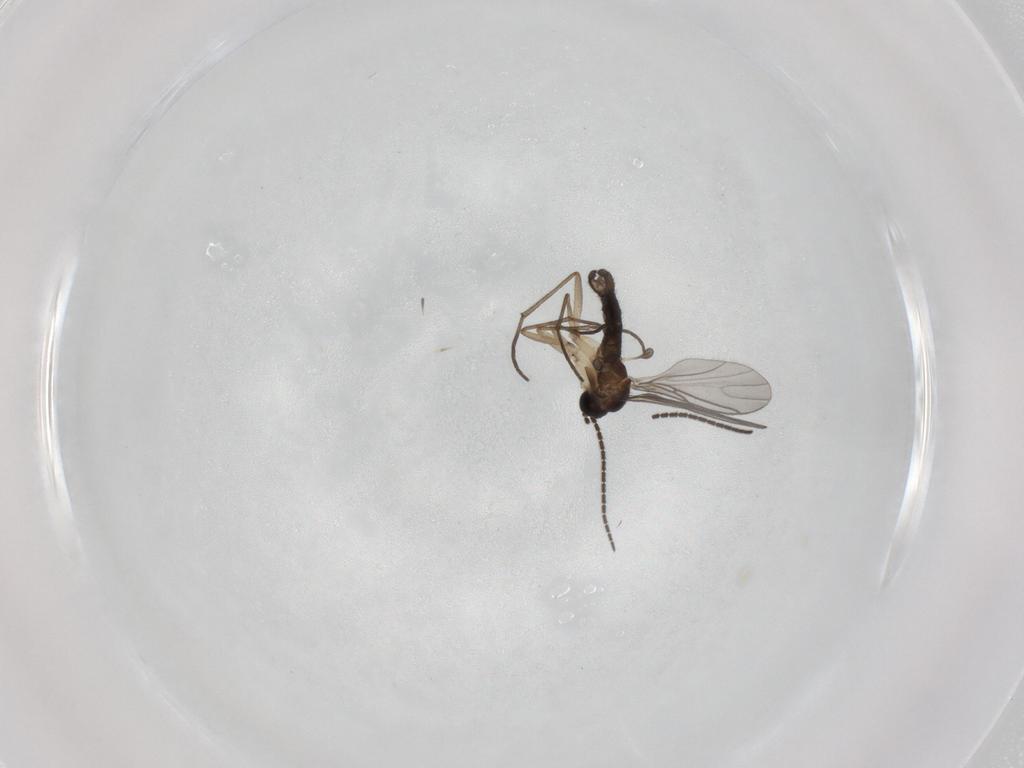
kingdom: Animalia
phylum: Arthropoda
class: Insecta
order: Diptera
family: Sciaridae
